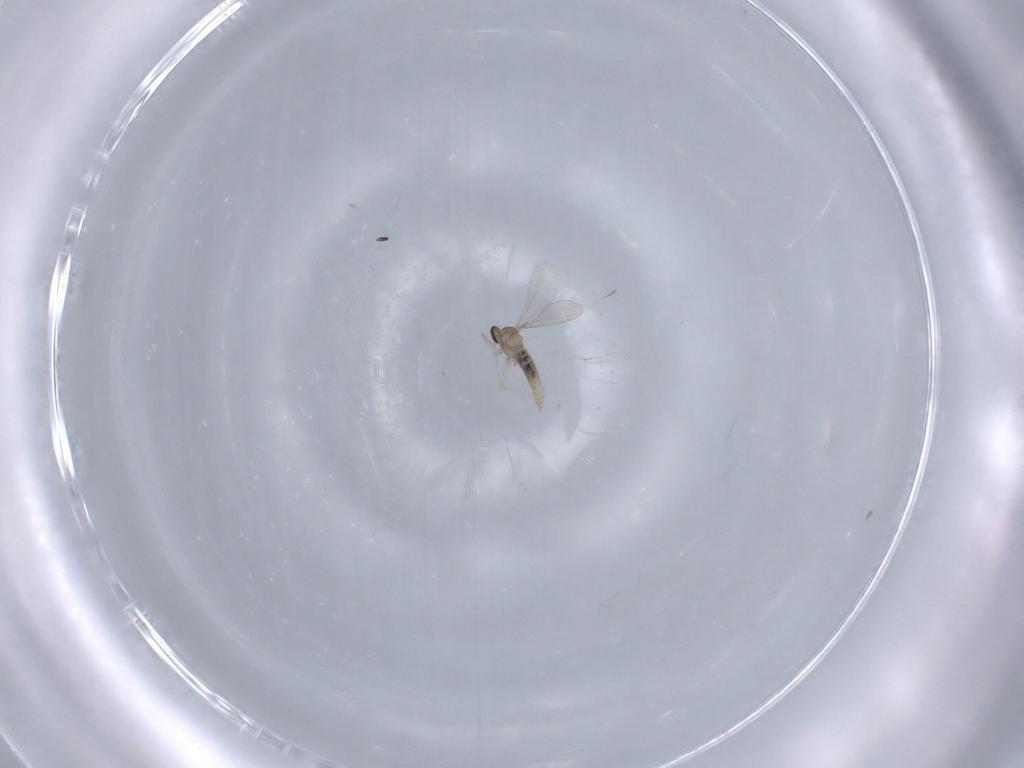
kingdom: Animalia
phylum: Arthropoda
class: Insecta
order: Diptera
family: Cecidomyiidae
